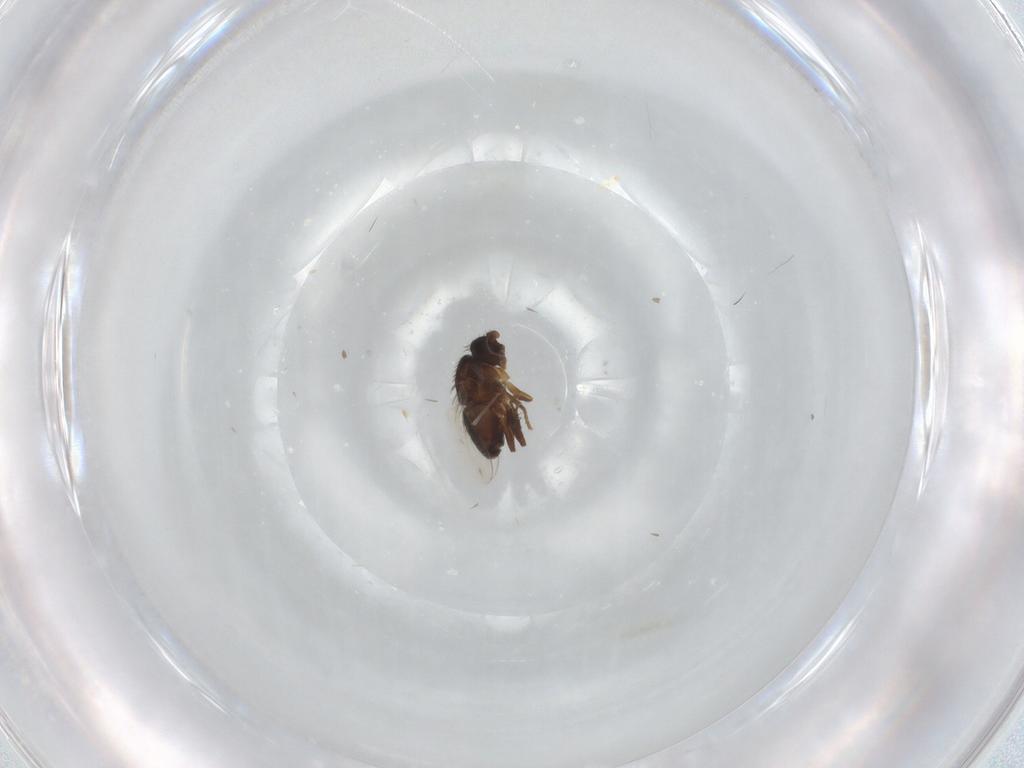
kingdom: Animalia
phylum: Arthropoda
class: Insecta
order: Diptera
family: Sphaeroceridae
